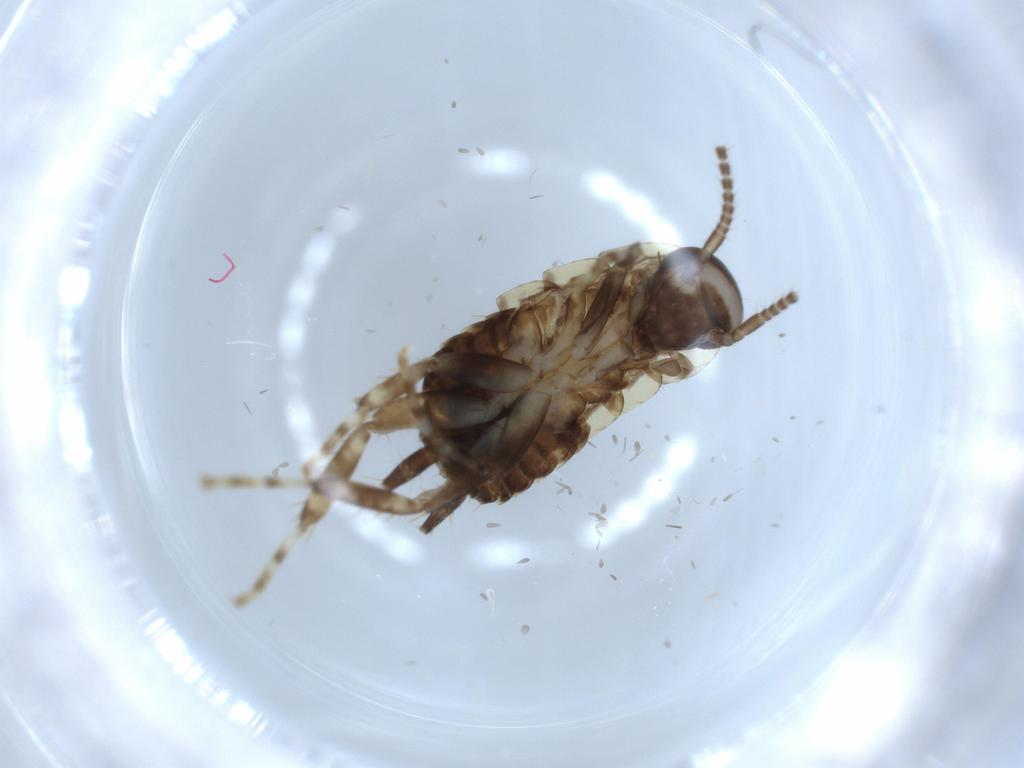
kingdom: Animalia
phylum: Arthropoda
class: Insecta
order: Blattodea
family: Ectobiidae
